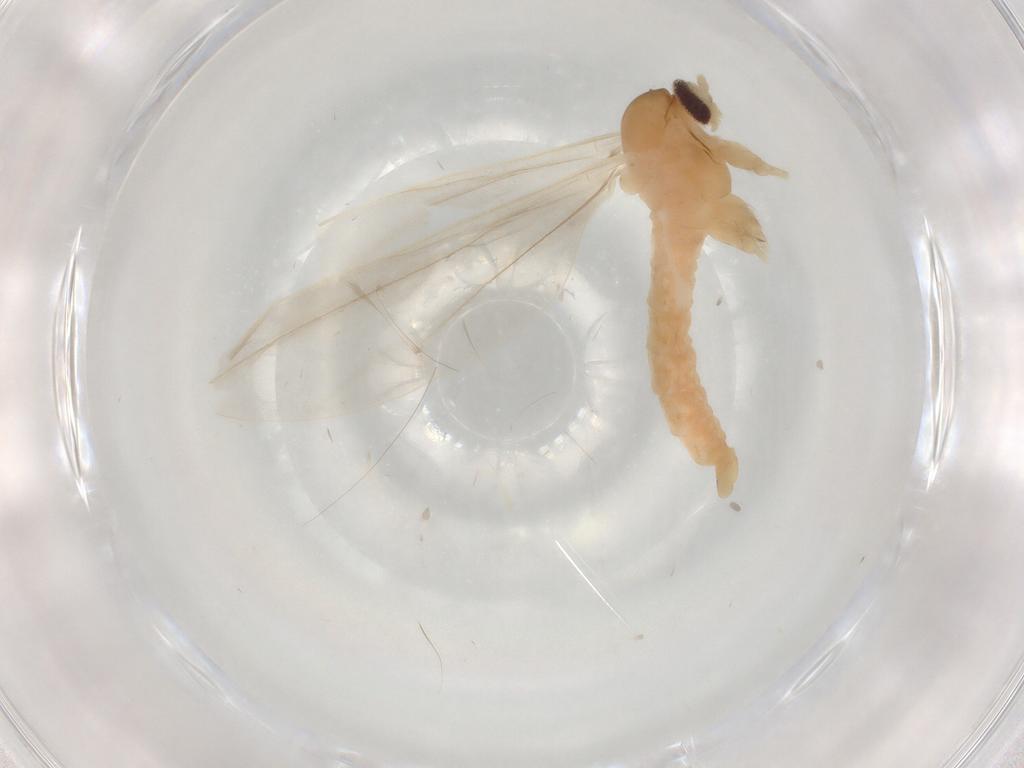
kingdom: Animalia
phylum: Arthropoda
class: Insecta
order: Diptera
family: Cecidomyiidae
